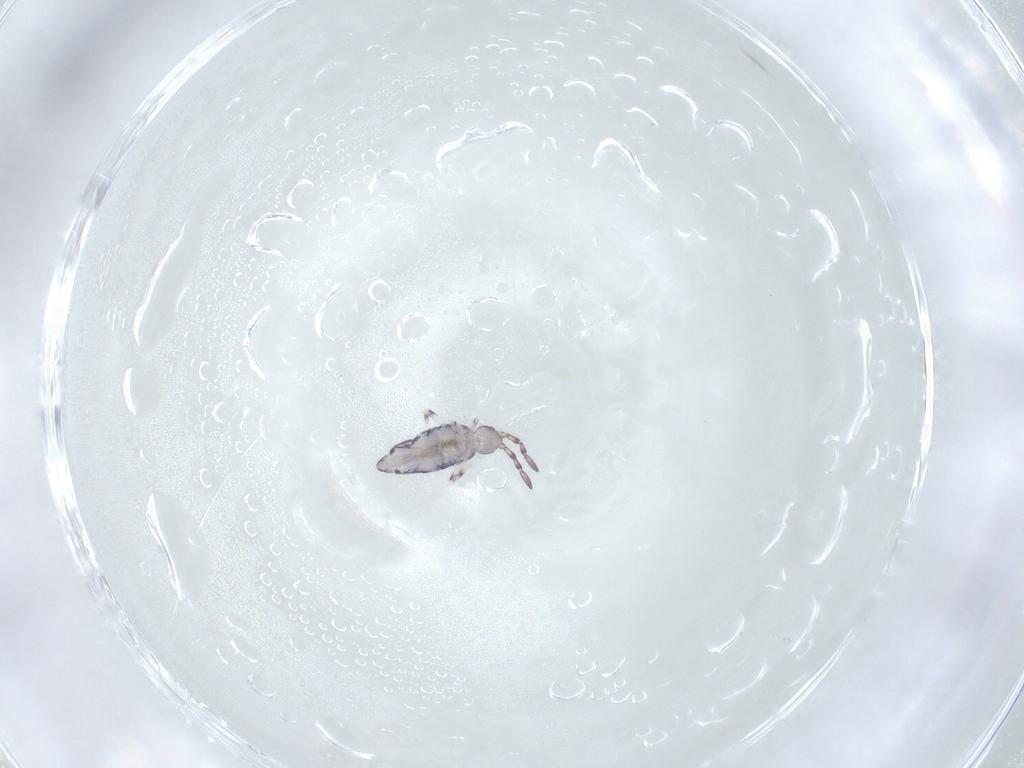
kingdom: Animalia
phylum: Arthropoda
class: Collembola
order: Entomobryomorpha
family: Entomobryidae
